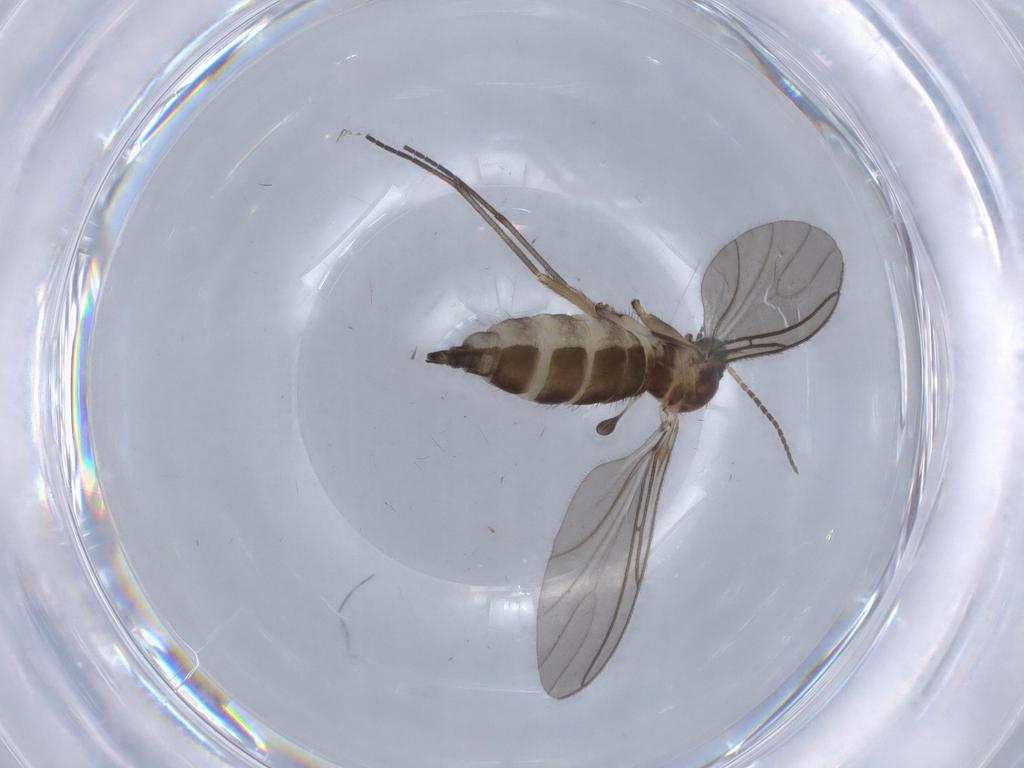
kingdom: Animalia
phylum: Arthropoda
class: Insecta
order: Diptera
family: Sciaridae
